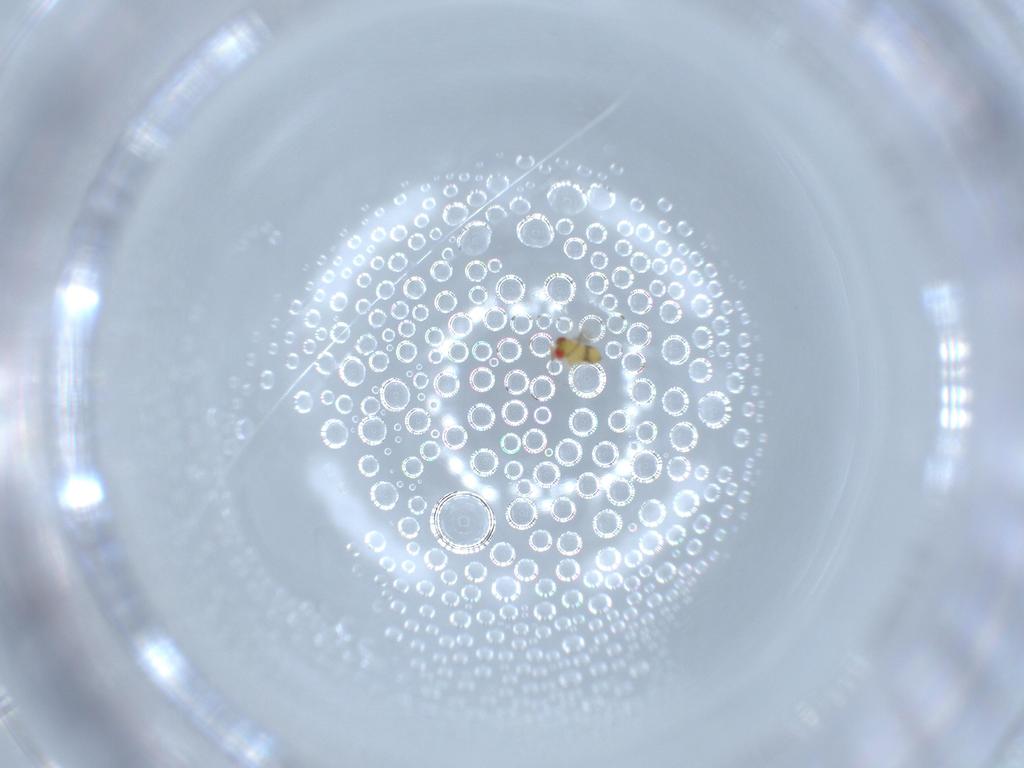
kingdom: Animalia
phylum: Arthropoda
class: Insecta
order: Hymenoptera
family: Trichogrammatidae
